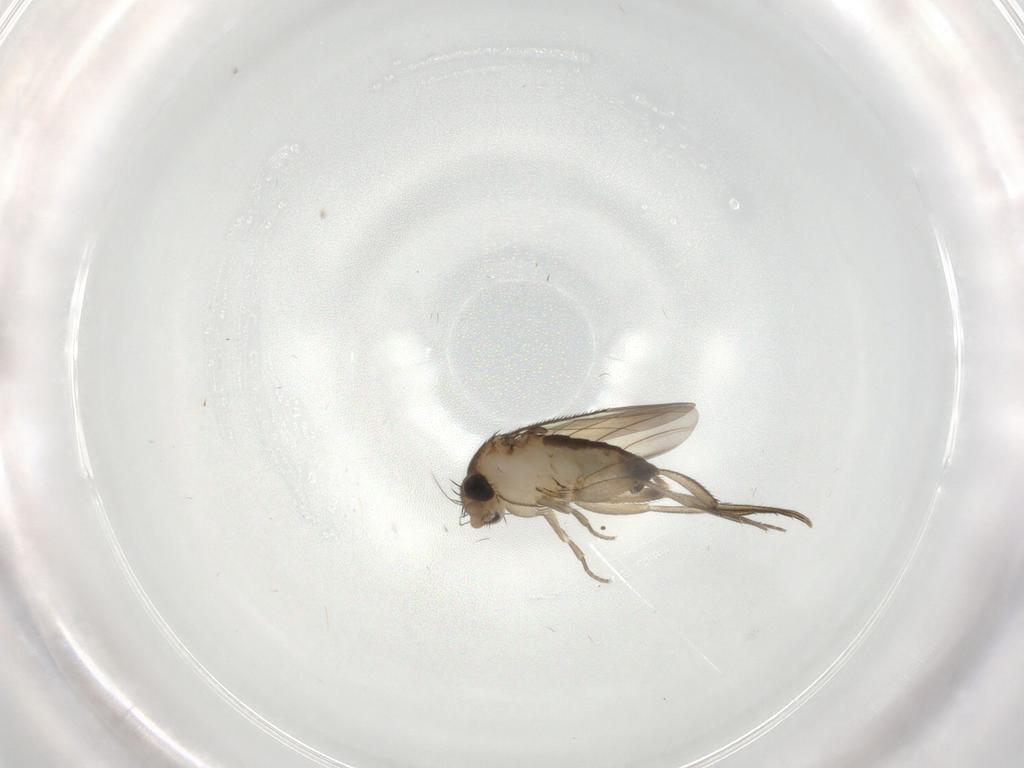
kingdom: Animalia
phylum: Arthropoda
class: Insecta
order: Diptera
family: Phoridae
